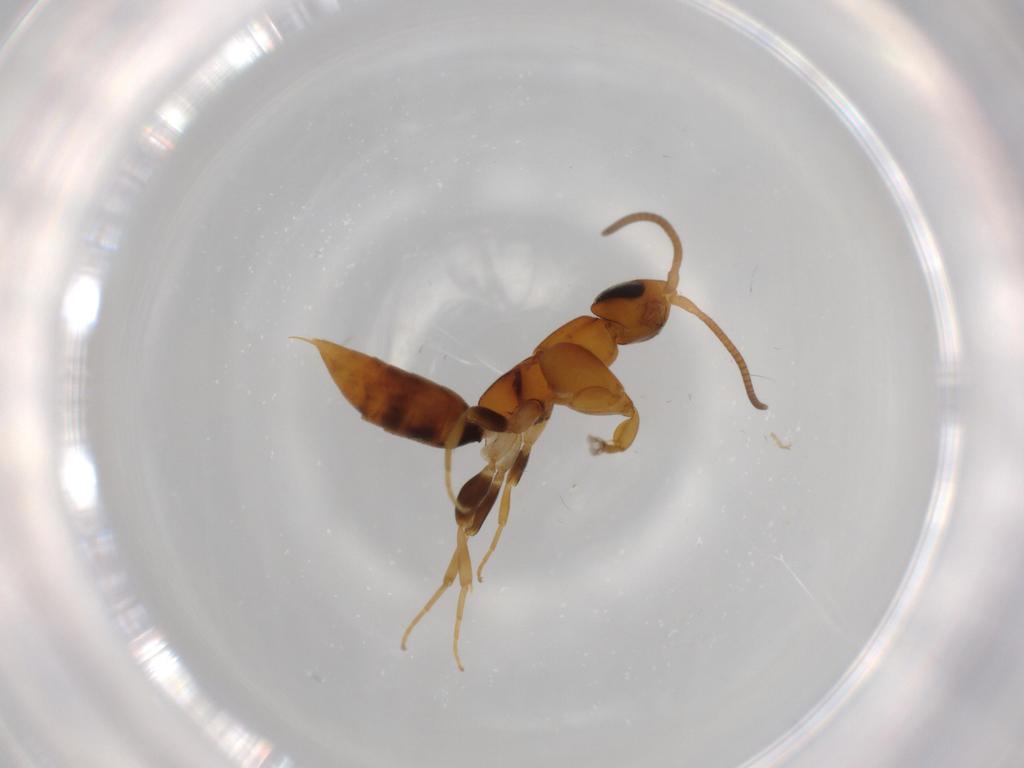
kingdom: Animalia
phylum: Arthropoda
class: Insecta
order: Hymenoptera
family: Sclerogibbidae
